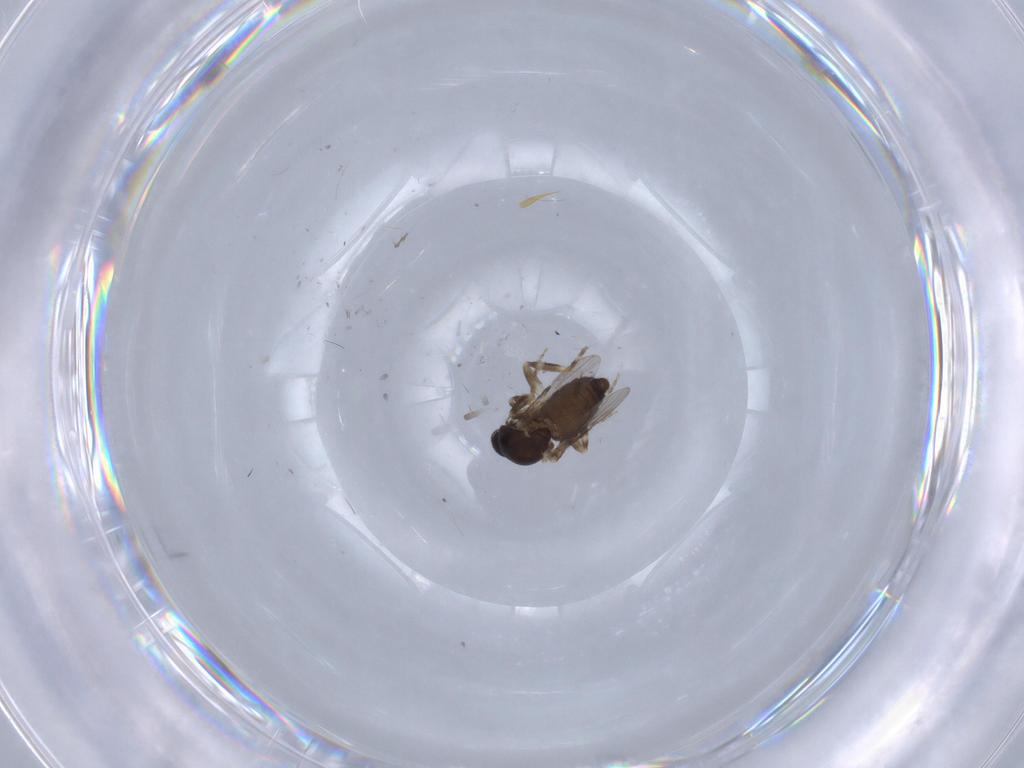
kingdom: Animalia
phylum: Arthropoda
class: Insecta
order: Diptera
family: Ceratopogonidae
